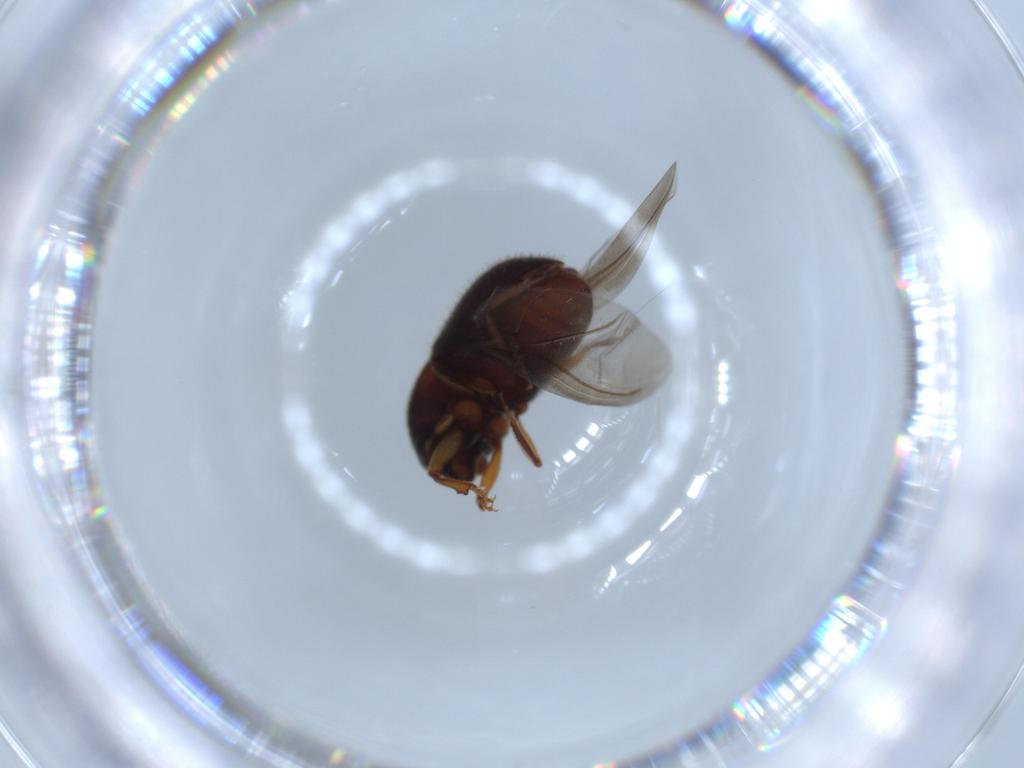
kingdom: Animalia
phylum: Arthropoda
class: Insecta
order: Coleoptera
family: Curculionidae
